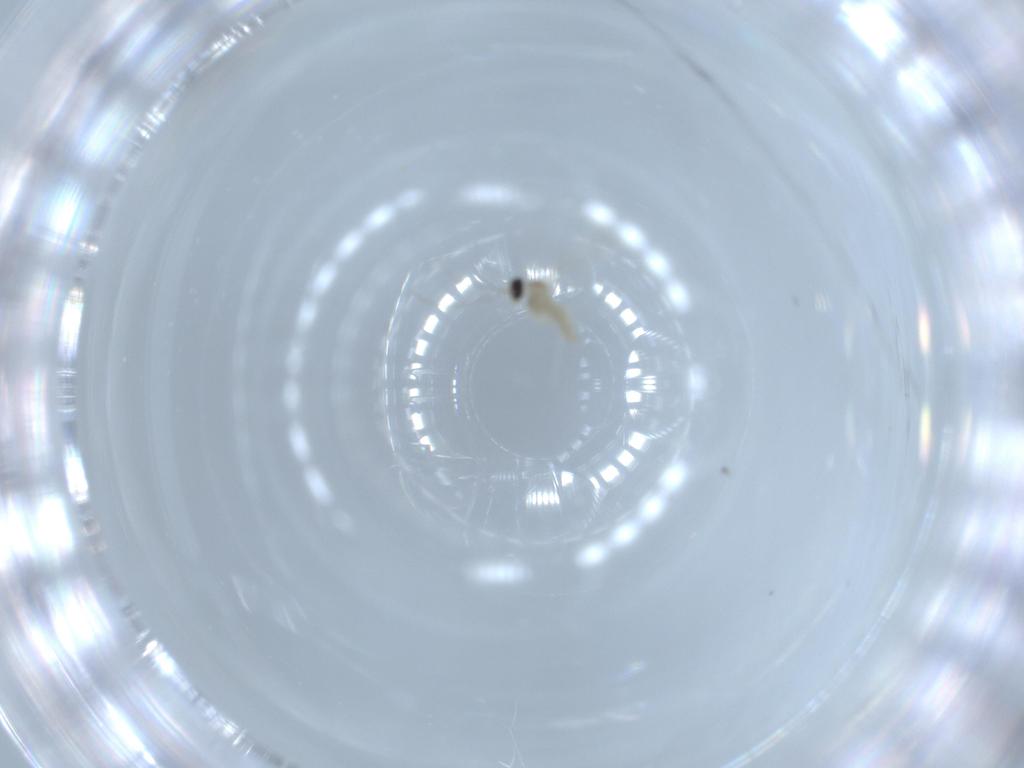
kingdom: Animalia
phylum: Arthropoda
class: Insecta
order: Diptera
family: Cecidomyiidae
